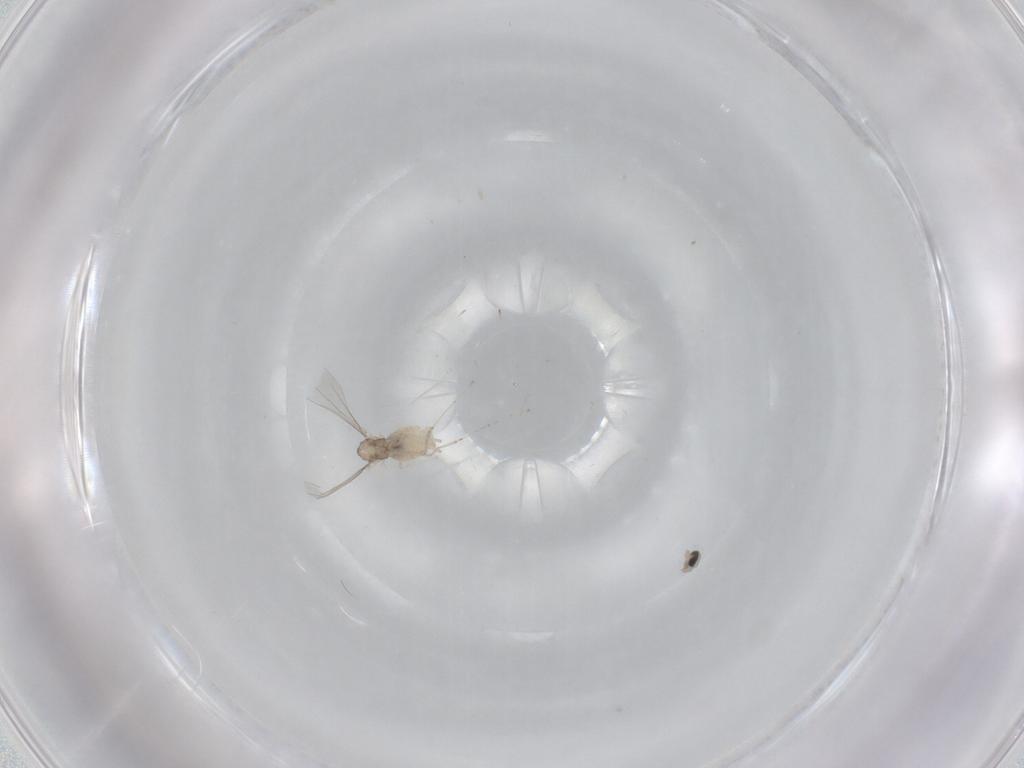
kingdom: Animalia
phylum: Arthropoda
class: Insecta
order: Diptera
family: Cecidomyiidae
